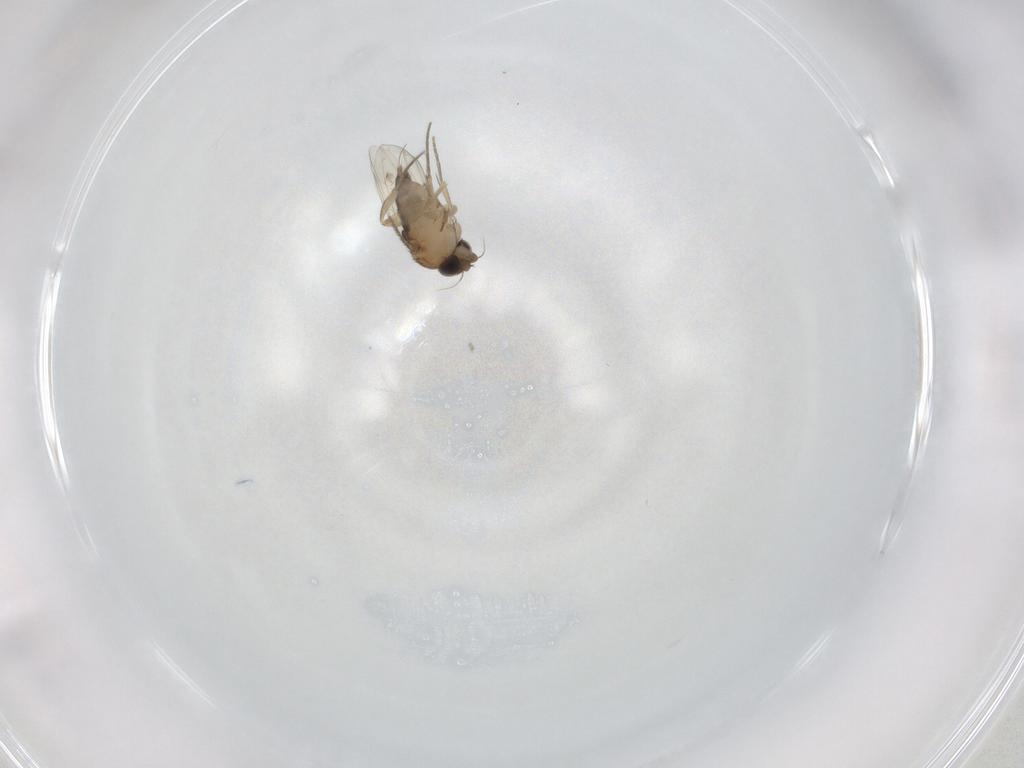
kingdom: Animalia
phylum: Arthropoda
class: Insecta
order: Diptera
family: Phoridae
